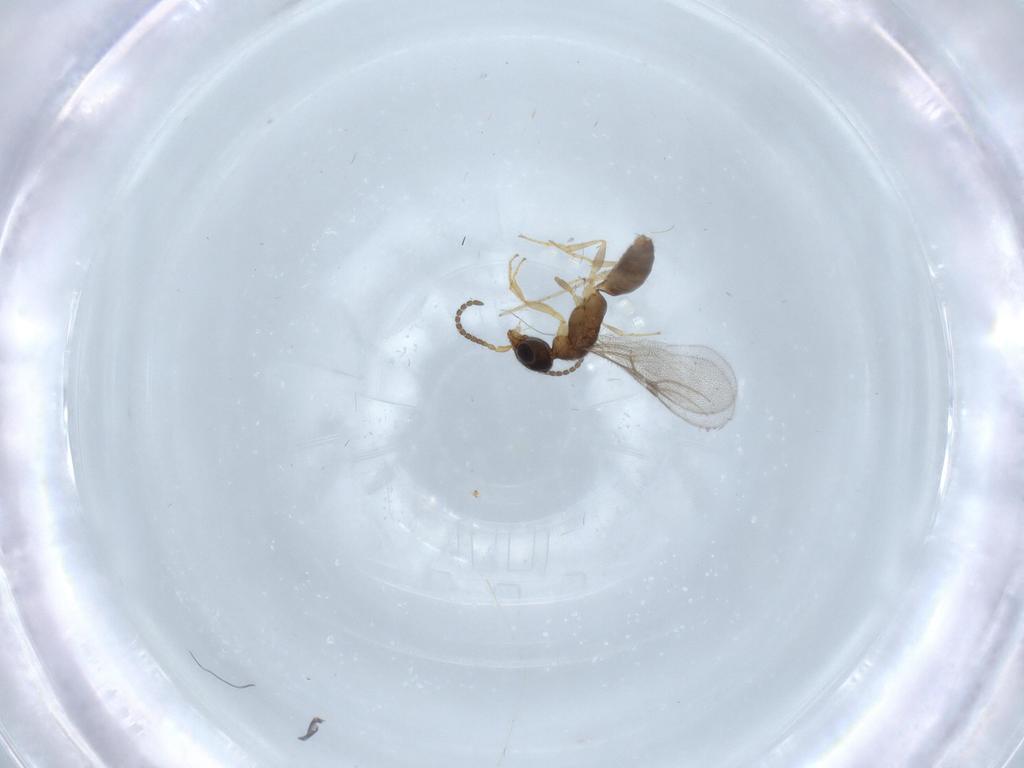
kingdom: Animalia
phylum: Arthropoda
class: Insecta
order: Hymenoptera
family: Bethylidae
